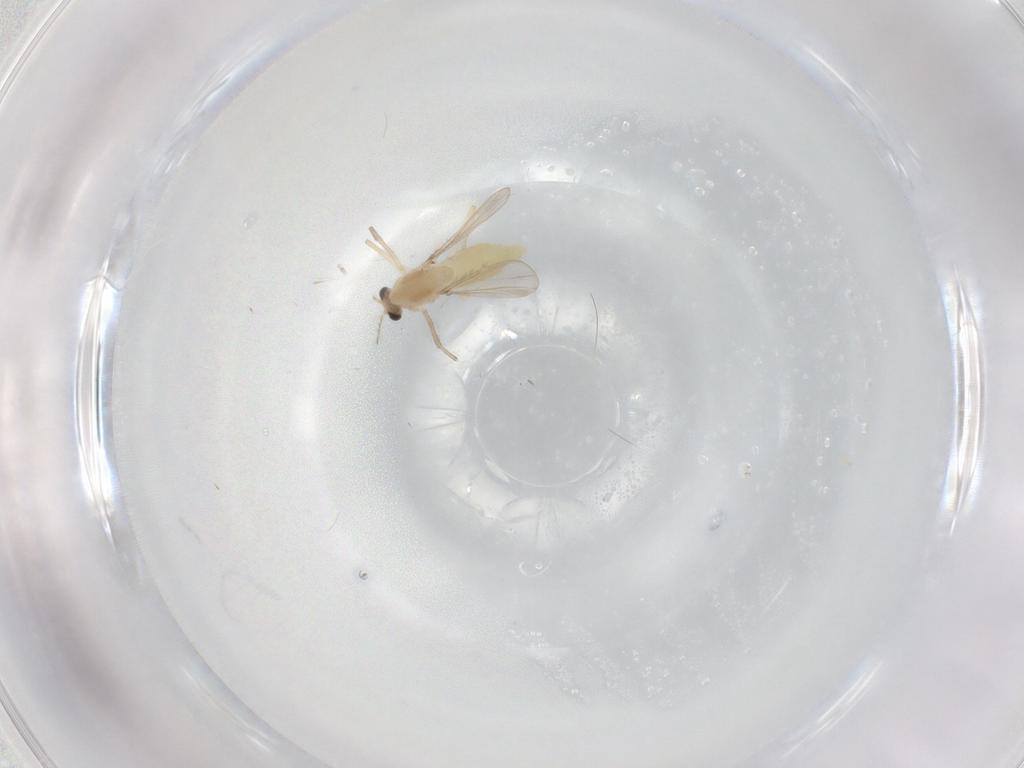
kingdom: Animalia
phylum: Arthropoda
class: Insecta
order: Diptera
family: Chironomidae
